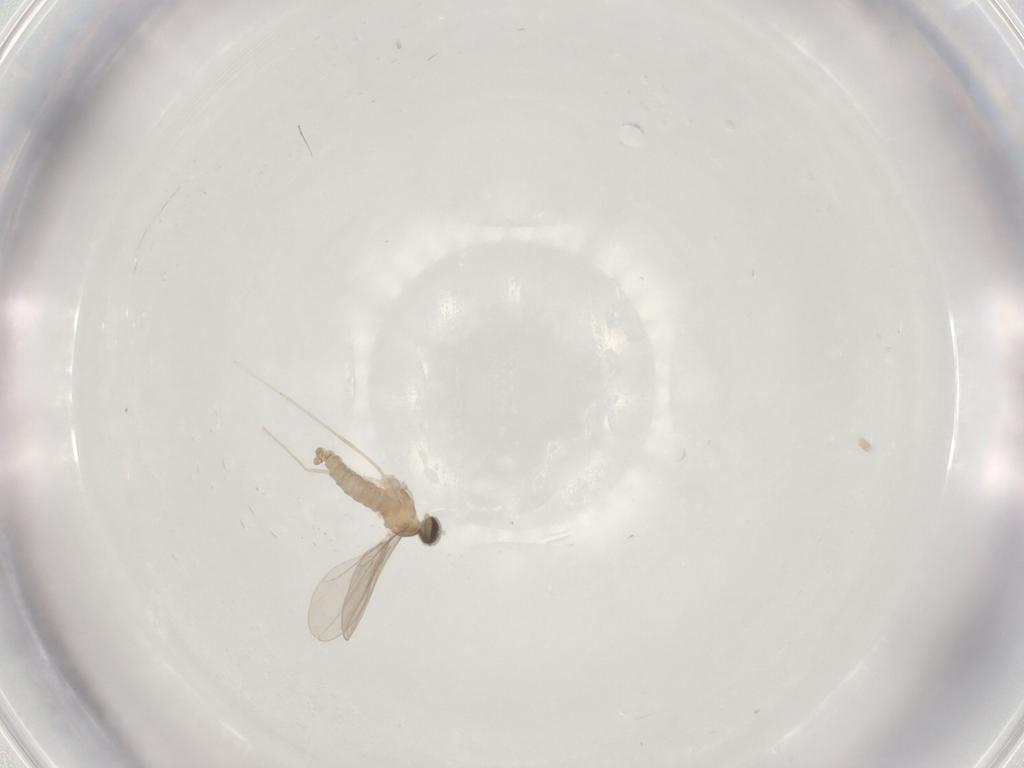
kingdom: Animalia
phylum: Arthropoda
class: Insecta
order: Diptera
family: Cecidomyiidae
